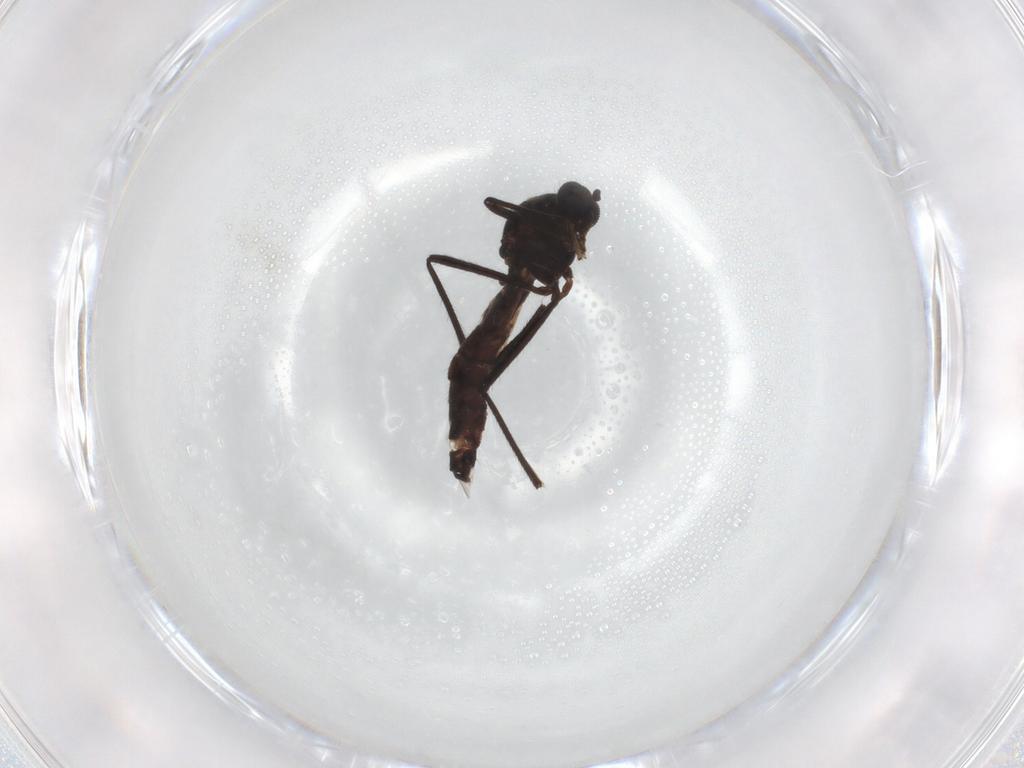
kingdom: Animalia
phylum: Arthropoda
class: Insecta
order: Diptera
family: Ceratopogonidae
